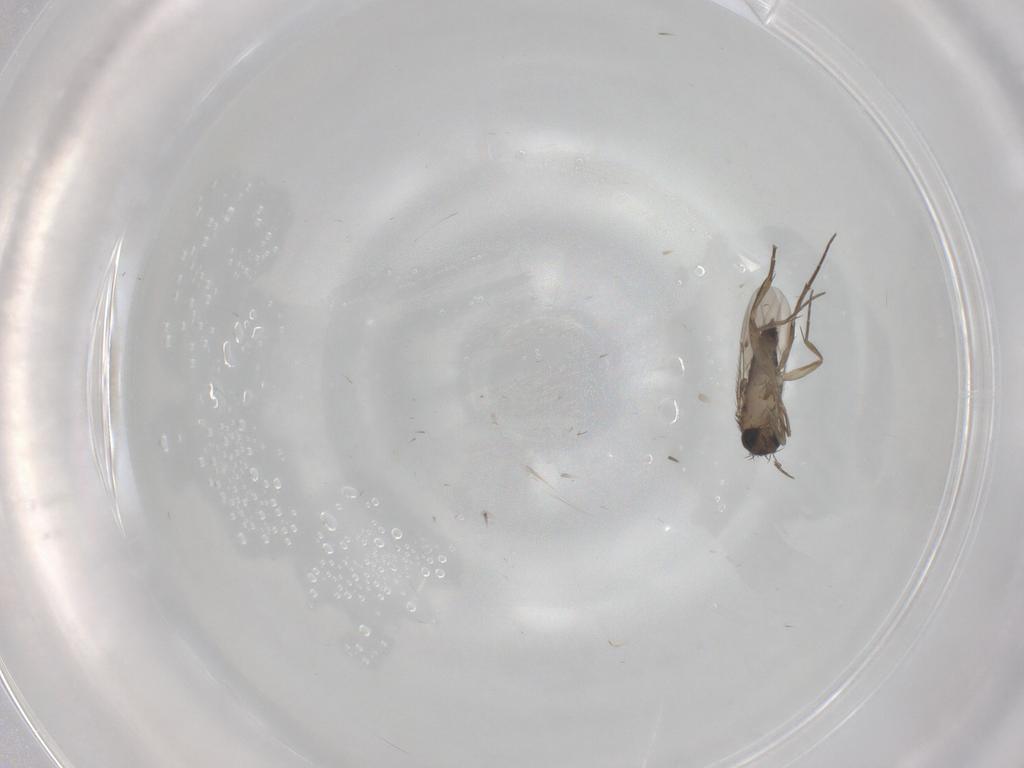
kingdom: Animalia
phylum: Arthropoda
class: Insecta
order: Diptera
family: Phoridae
